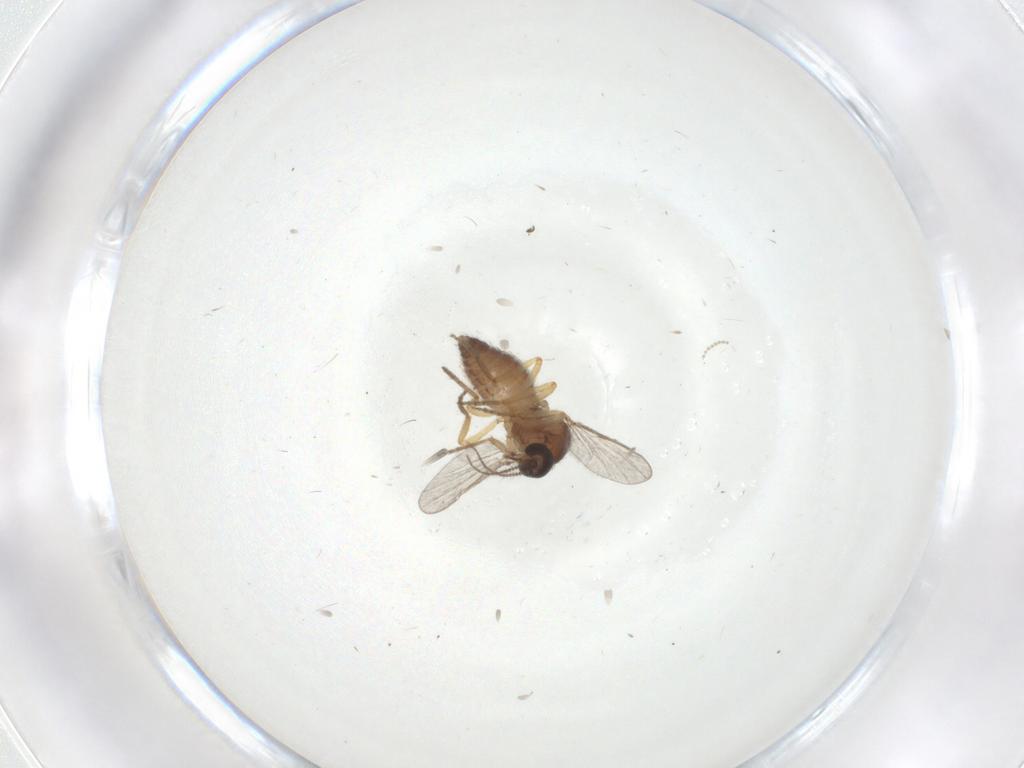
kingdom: Animalia
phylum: Arthropoda
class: Insecta
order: Diptera
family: Ceratopogonidae
